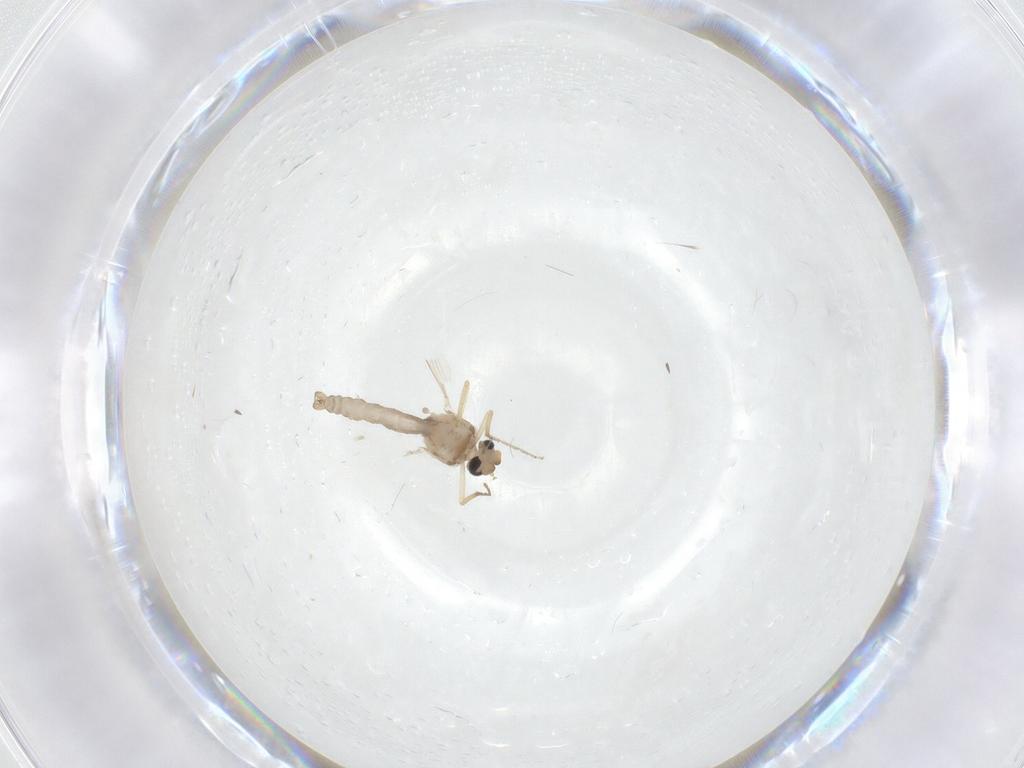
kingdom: Animalia
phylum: Arthropoda
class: Insecta
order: Diptera
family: Ceratopogonidae
